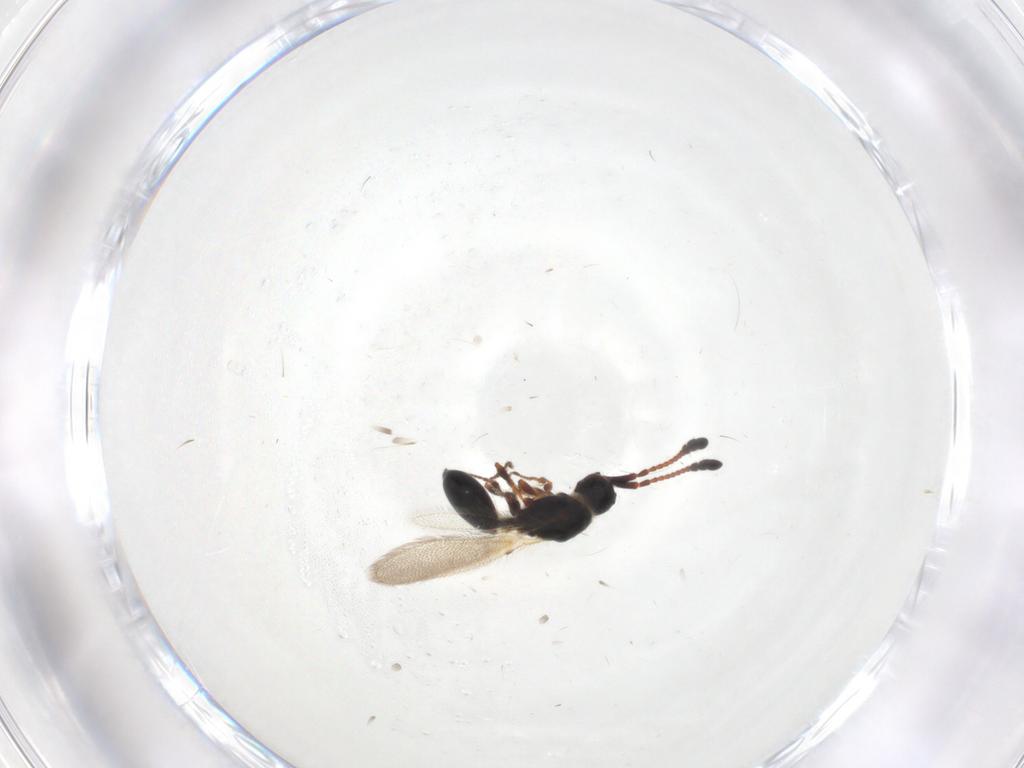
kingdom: Animalia
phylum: Arthropoda
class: Insecta
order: Hymenoptera
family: Diapriidae
